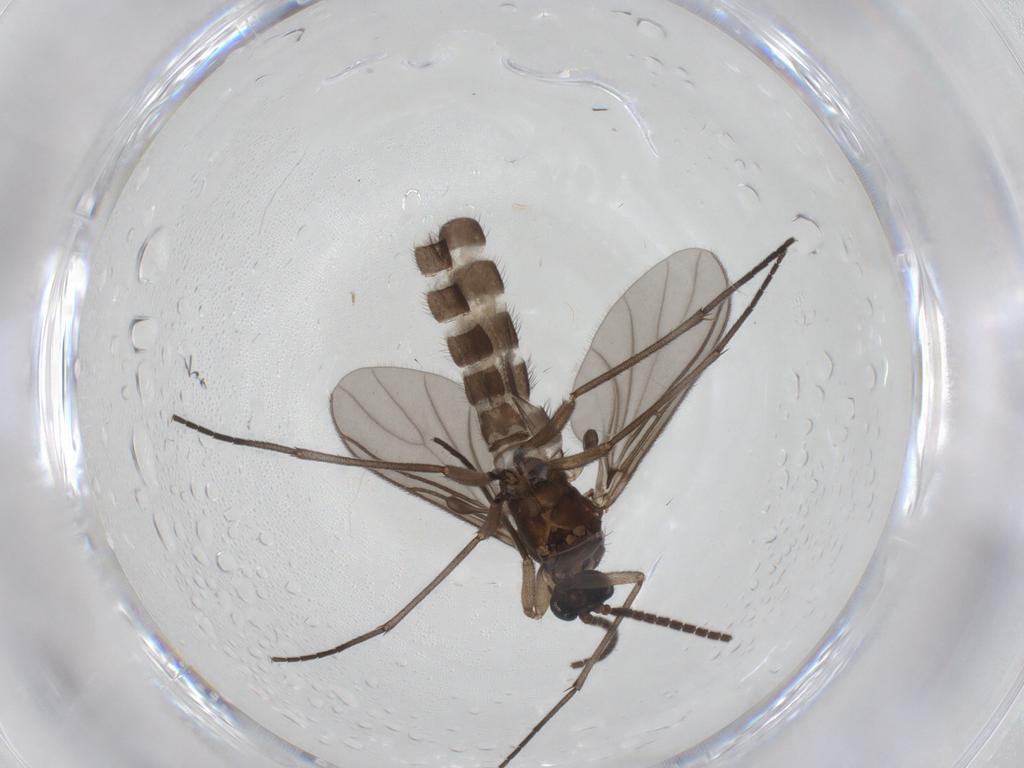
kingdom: Animalia
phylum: Arthropoda
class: Insecta
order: Diptera
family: Sciaridae
